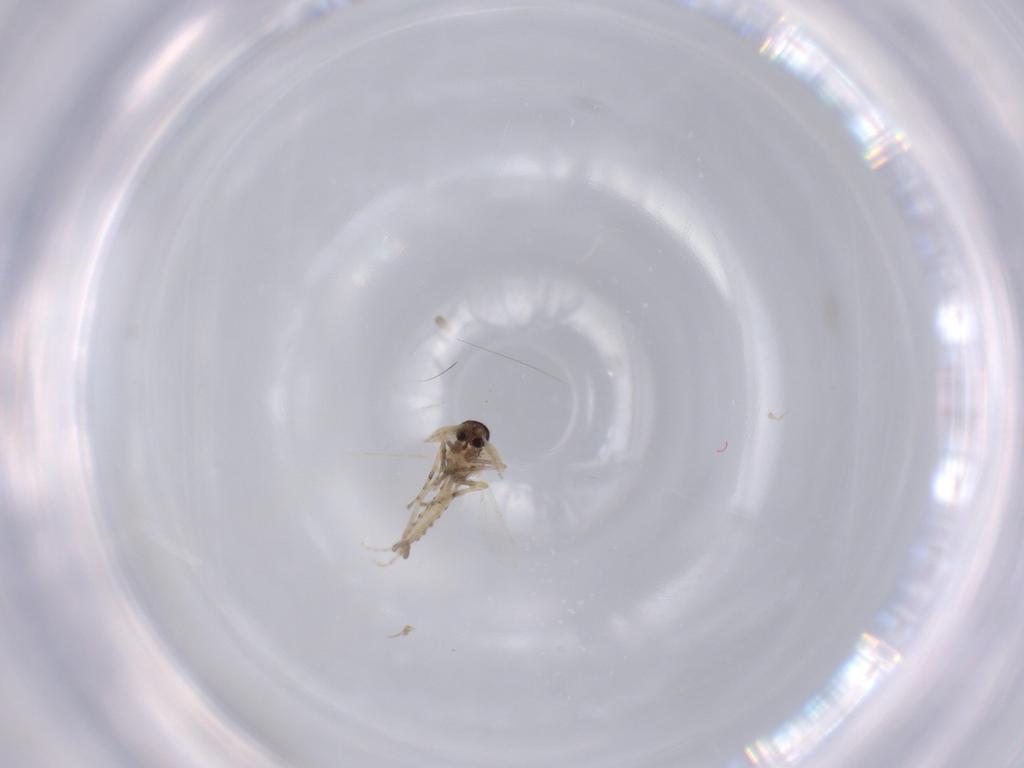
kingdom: Animalia
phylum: Arthropoda
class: Insecta
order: Diptera
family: Ceratopogonidae
